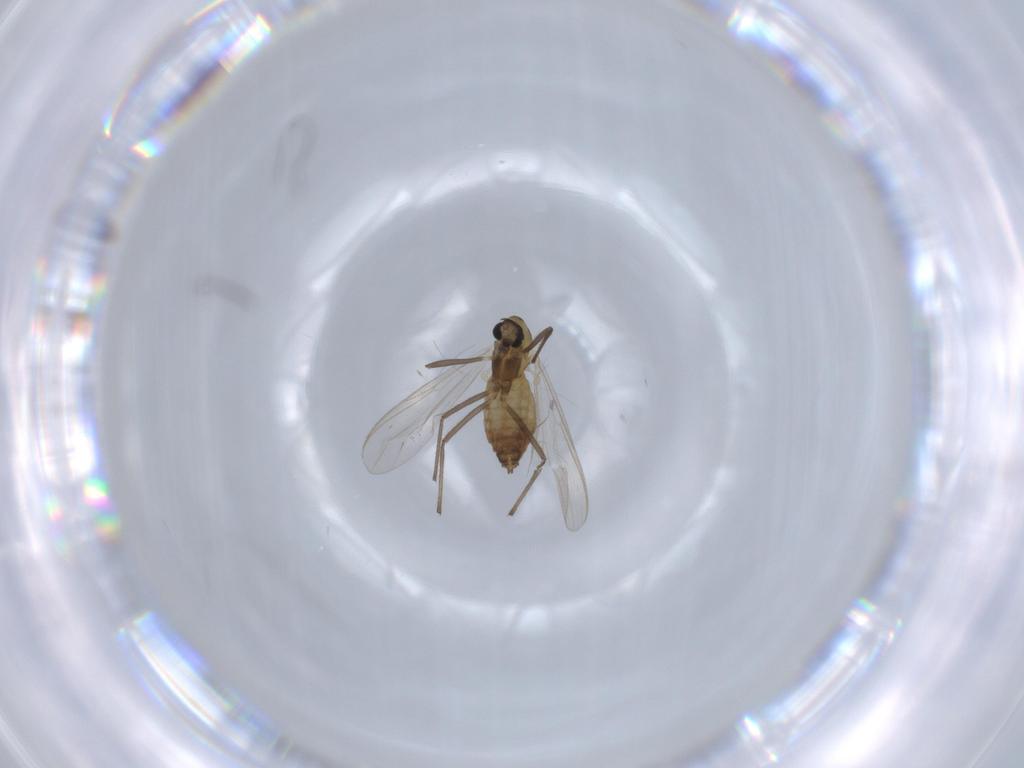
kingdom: Animalia
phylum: Arthropoda
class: Insecta
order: Diptera
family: Chironomidae
